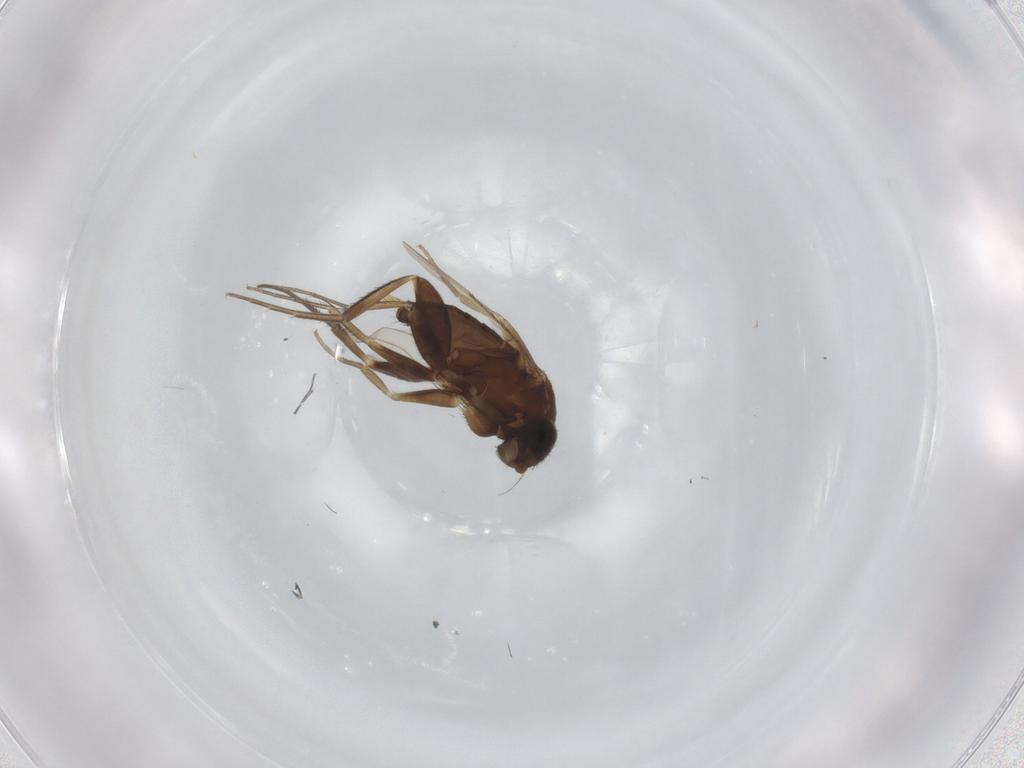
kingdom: Animalia
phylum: Arthropoda
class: Insecta
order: Diptera
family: Phoridae
